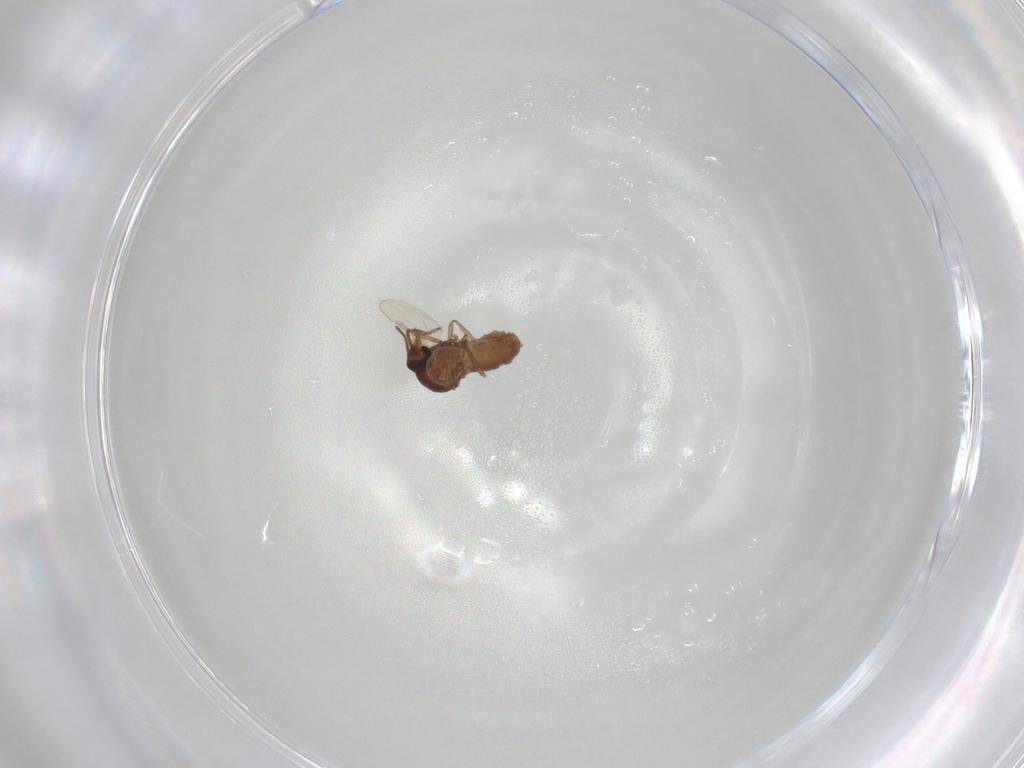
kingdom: Animalia
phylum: Arthropoda
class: Insecta
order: Diptera
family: Ceratopogonidae
